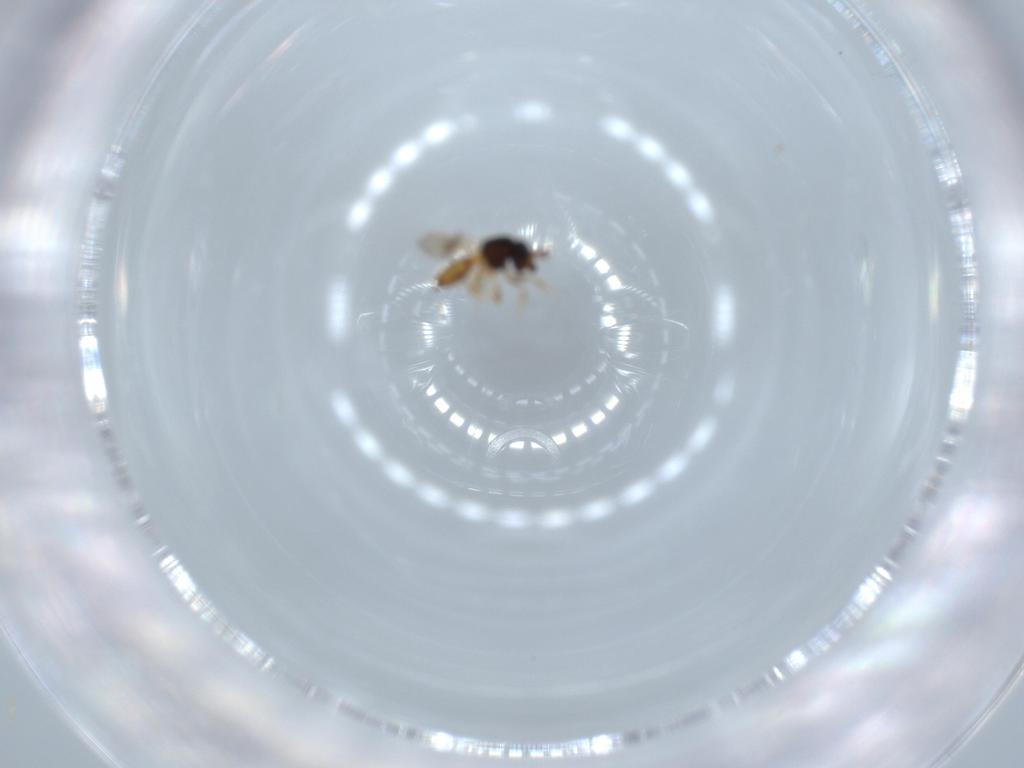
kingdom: Animalia
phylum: Arthropoda
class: Insecta
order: Hymenoptera
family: Scelionidae
